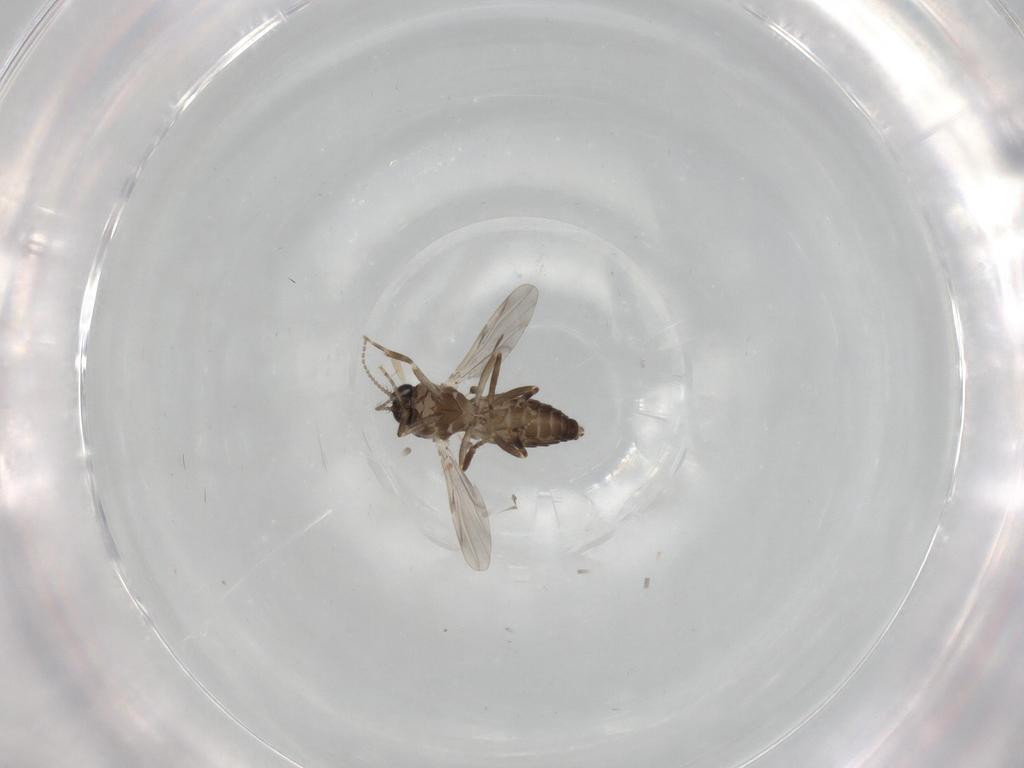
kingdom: Animalia
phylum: Arthropoda
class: Insecta
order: Diptera
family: Ceratopogonidae
